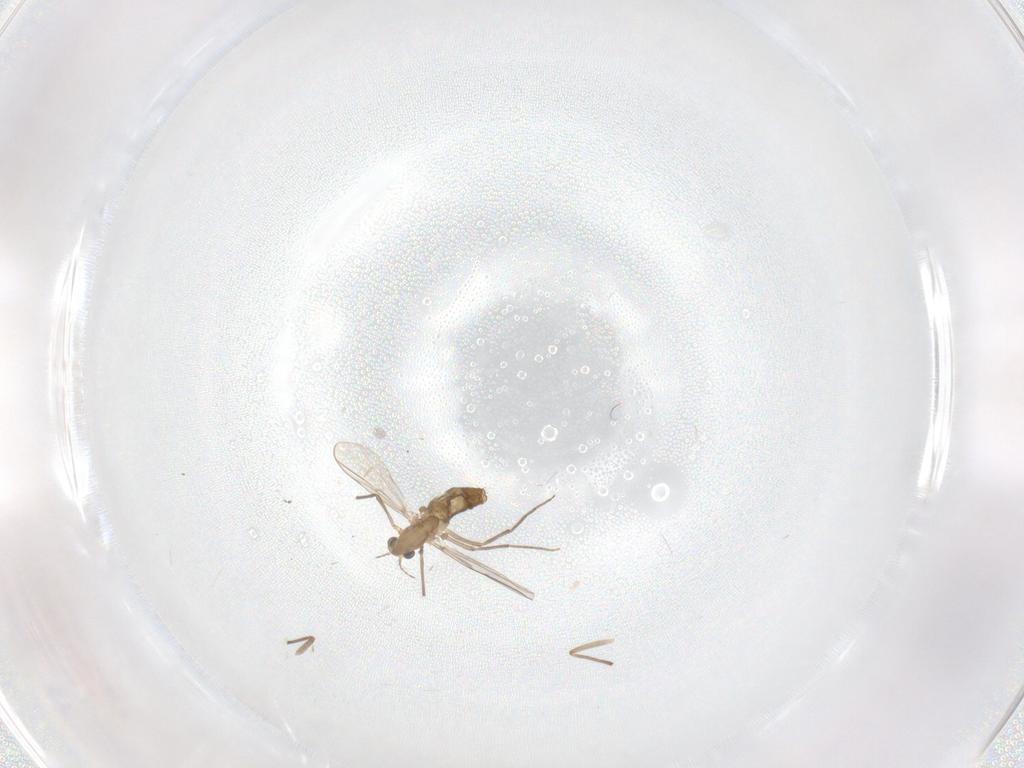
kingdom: Animalia
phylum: Arthropoda
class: Insecta
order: Diptera
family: Chironomidae
